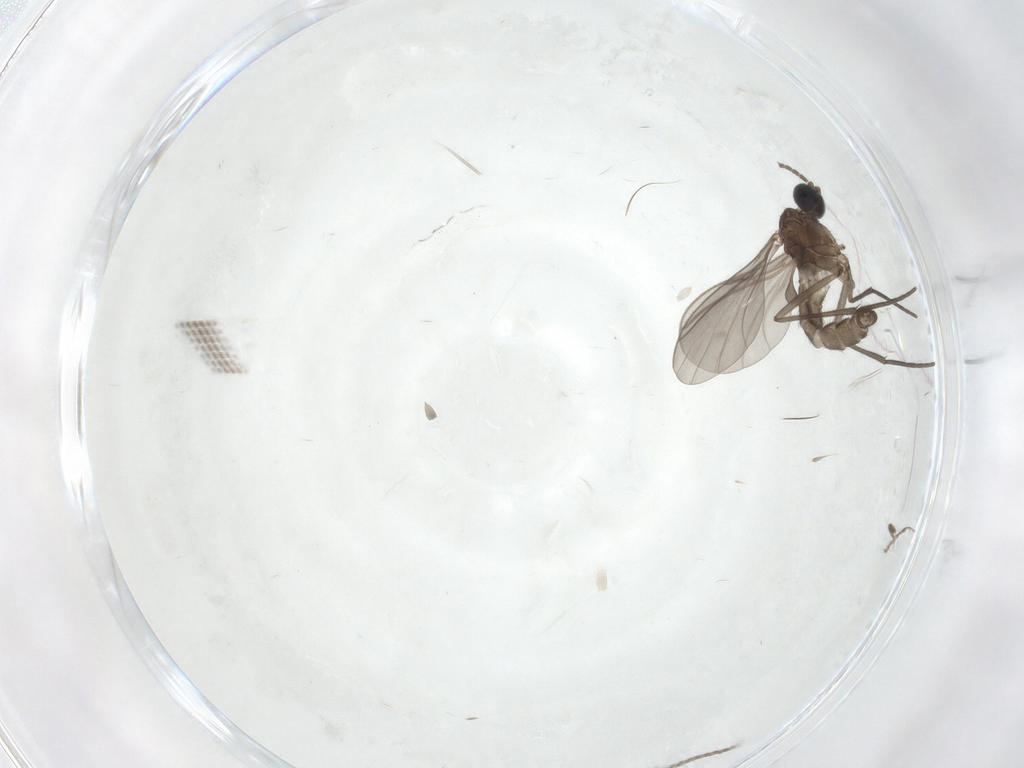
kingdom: Animalia
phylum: Arthropoda
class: Insecta
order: Diptera
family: Sciaridae
